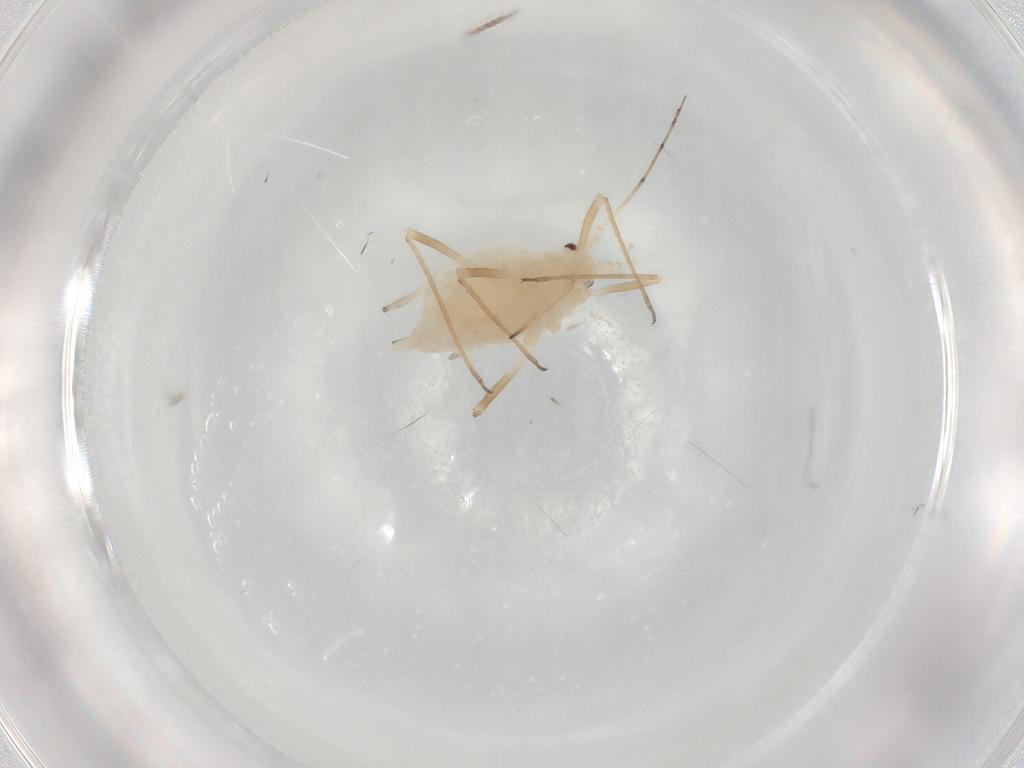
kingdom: Animalia
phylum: Arthropoda
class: Insecta
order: Hemiptera
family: Aphididae
